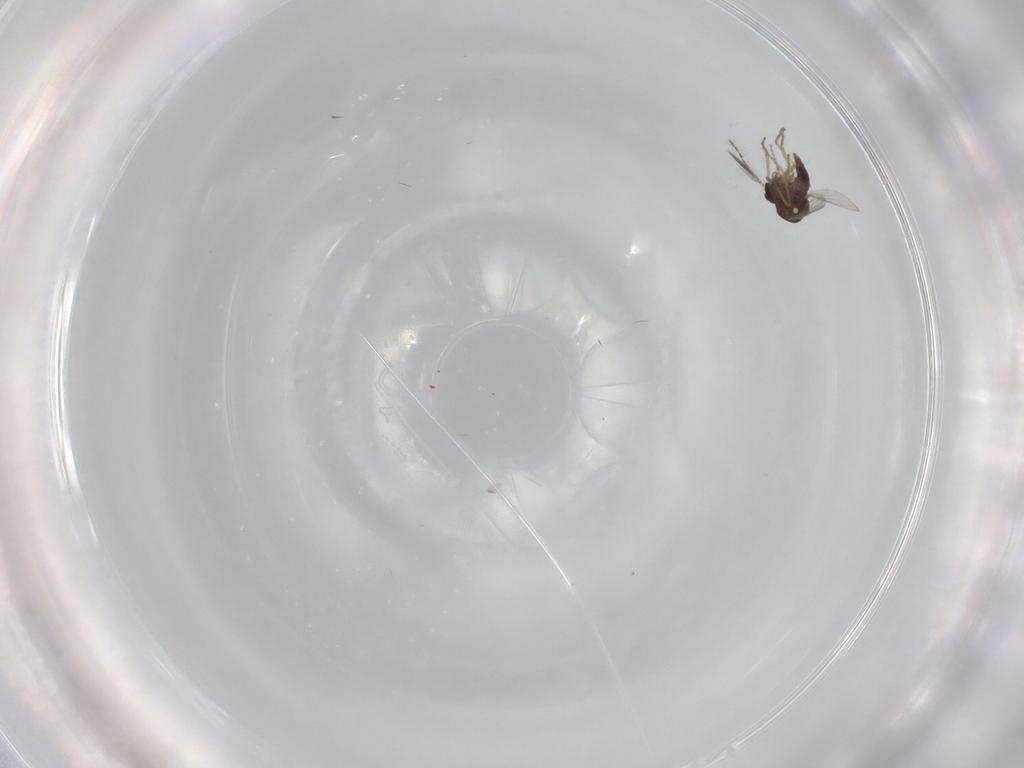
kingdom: Animalia
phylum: Arthropoda
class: Insecta
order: Diptera
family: Ceratopogonidae
